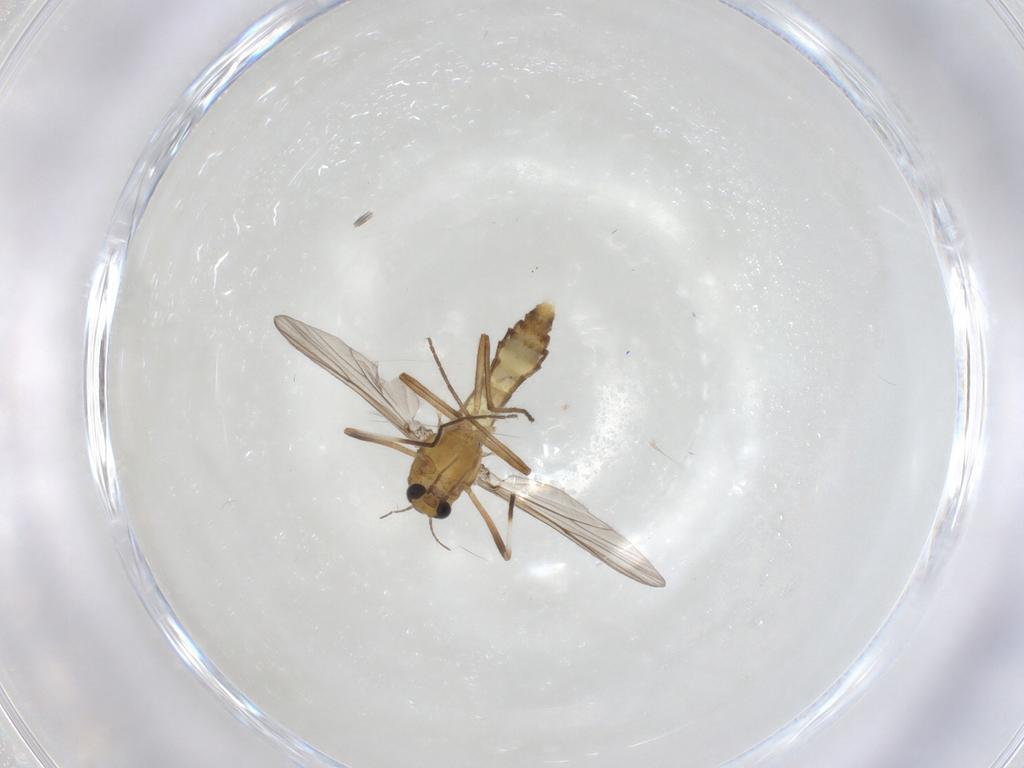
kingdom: Animalia
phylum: Arthropoda
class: Insecta
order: Diptera
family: Chironomidae
